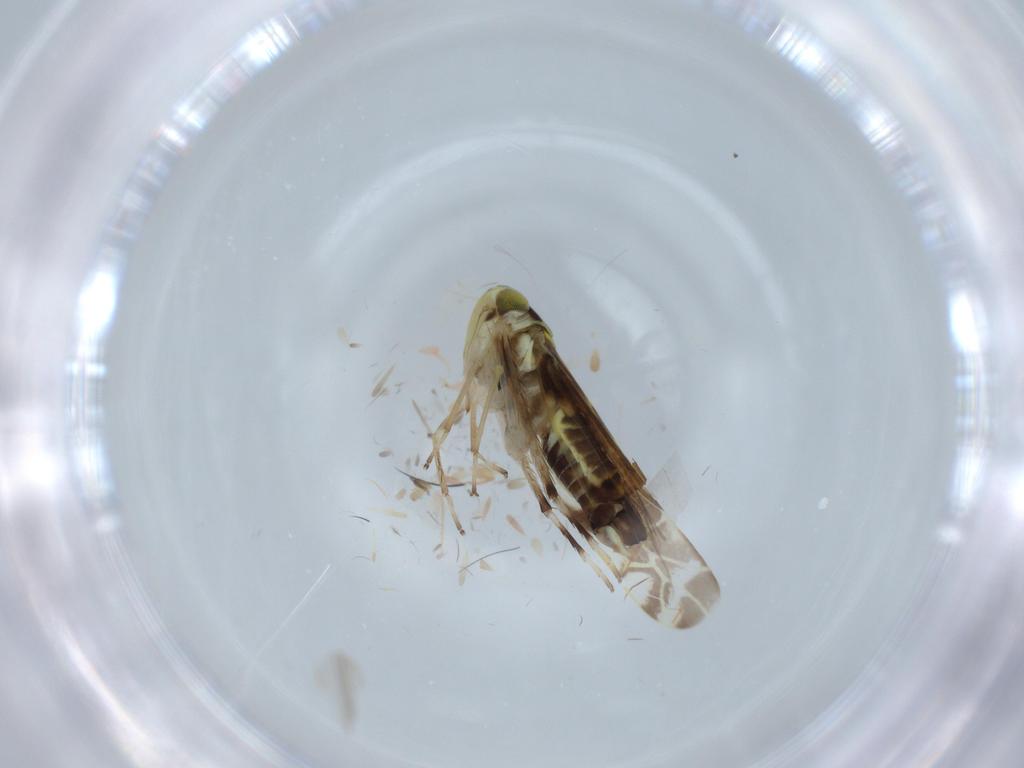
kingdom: Animalia
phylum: Arthropoda
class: Insecta
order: Hemiptera
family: Cicadellidae
